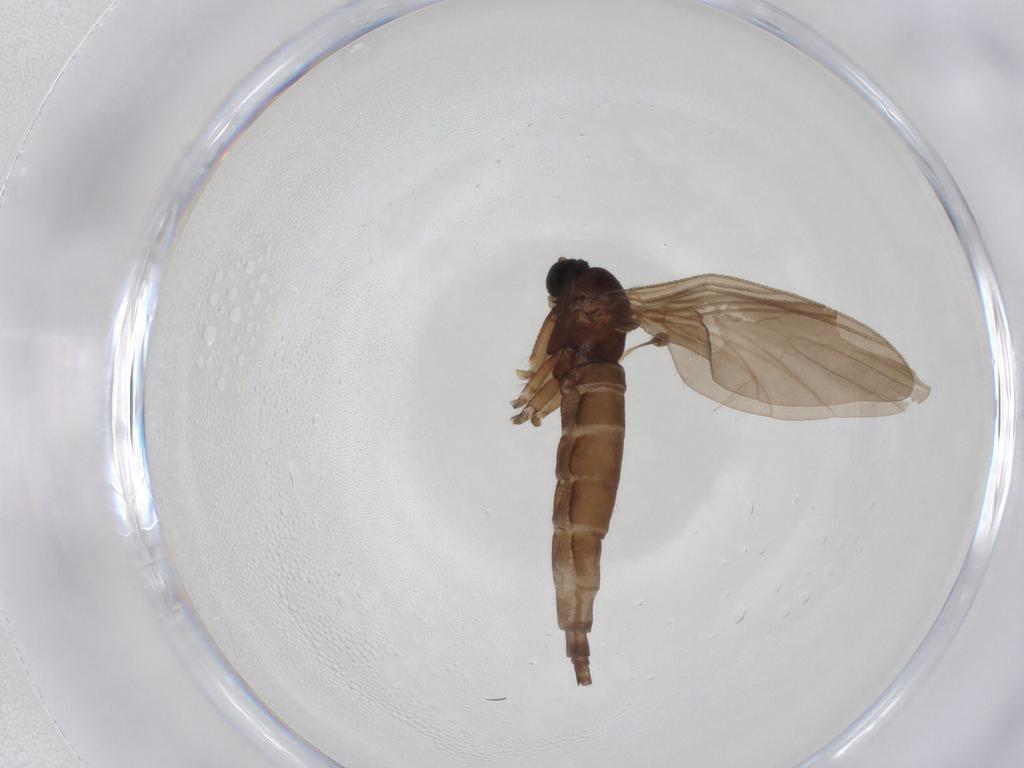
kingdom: Animalia
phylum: Arthropoda
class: Insecta
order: Diptera
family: Sciaridae
